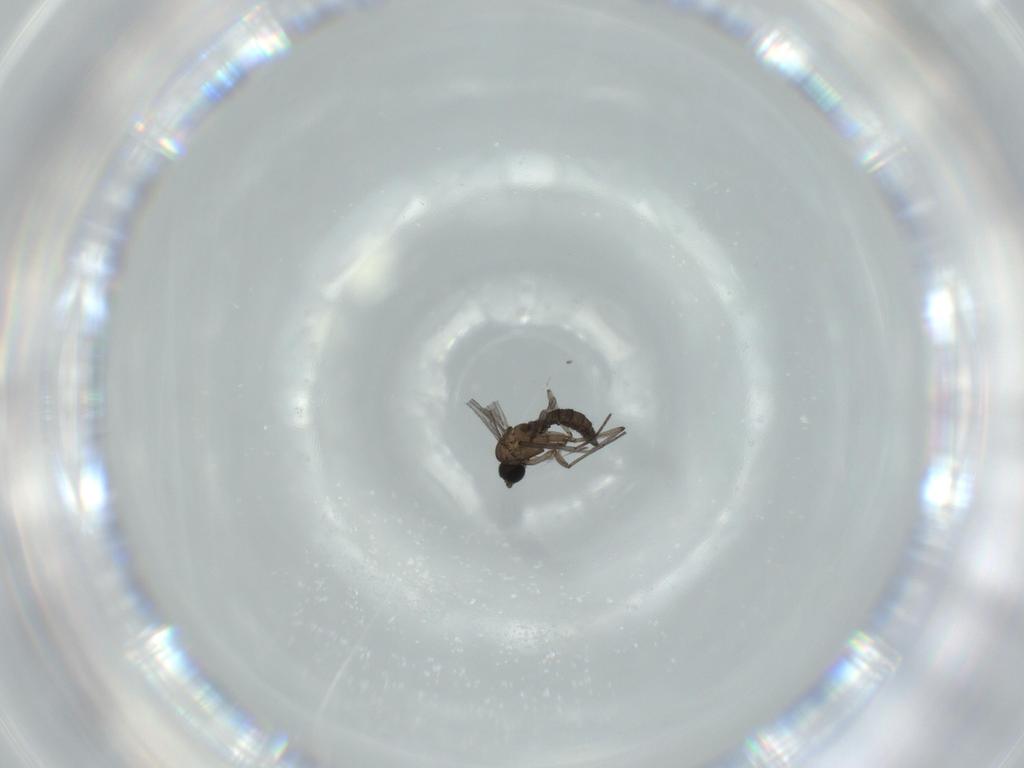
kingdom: Animalia
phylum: Arthropoda
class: Insecta
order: Diptera
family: Sciaridae
